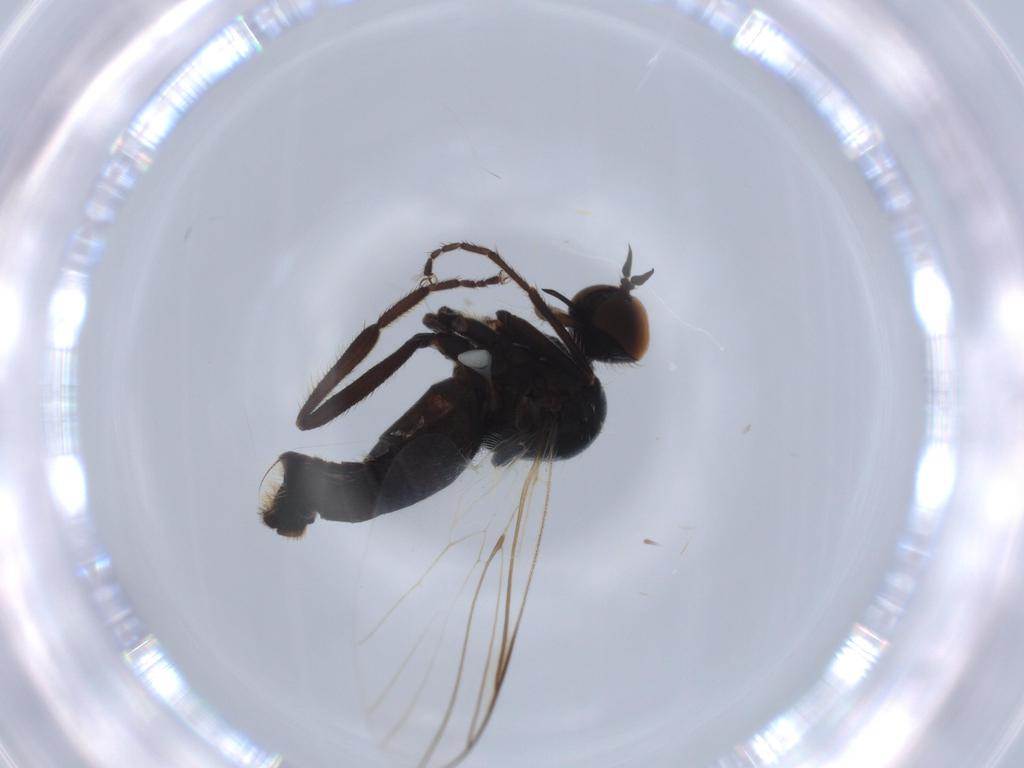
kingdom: Animalia
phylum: Arthropoda
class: Insecta
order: Diptera
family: Empididae
